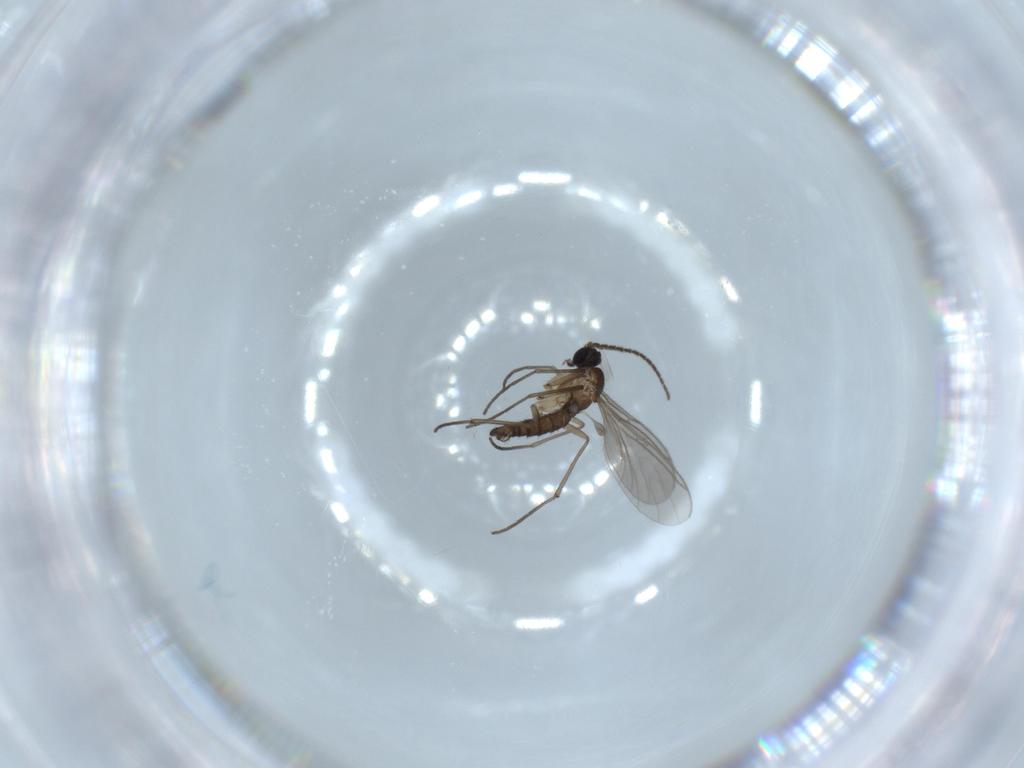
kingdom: Animalia
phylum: Arthropoda
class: Insecta
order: Diptera
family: Sciaridae
